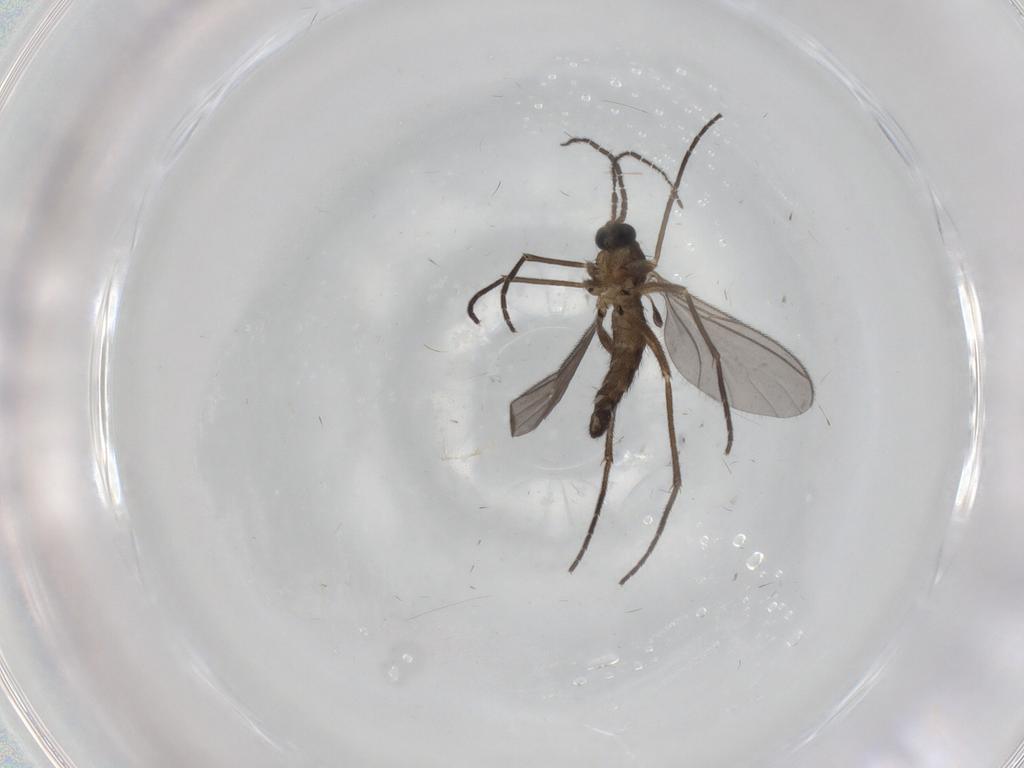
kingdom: Animalia
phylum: Arthropoda
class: Insecta
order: Diptera
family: Sciaridae
